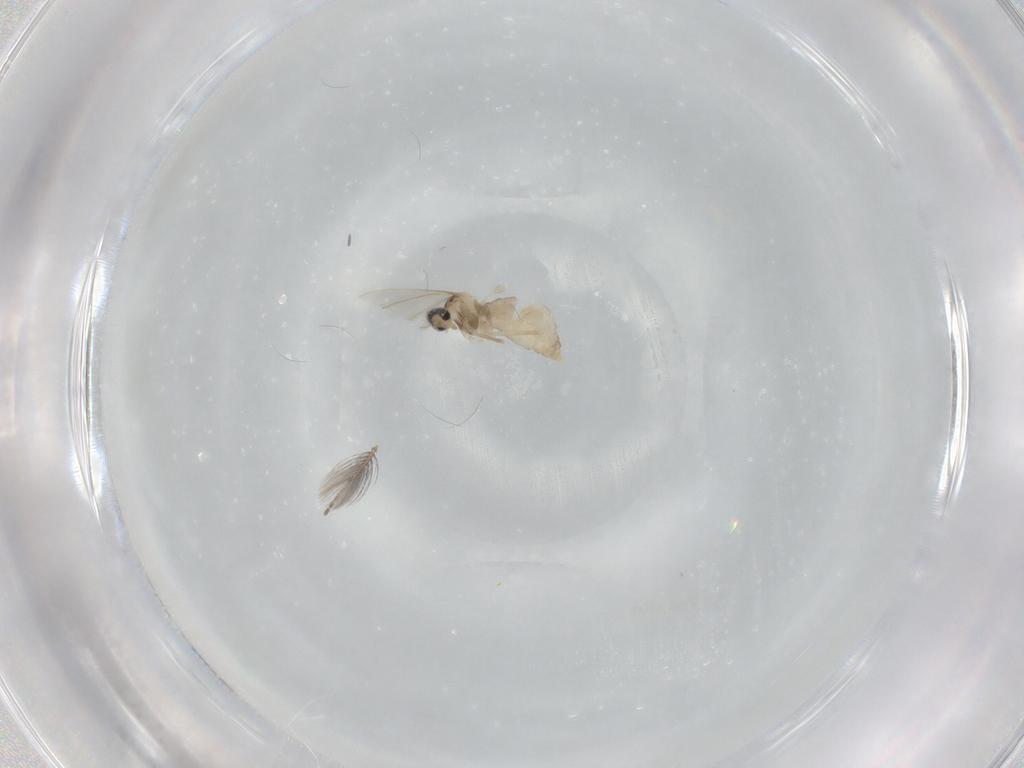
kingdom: Animalia
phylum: Arthropoda
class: Insecta
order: Diptera
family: Cecidomyiidae
